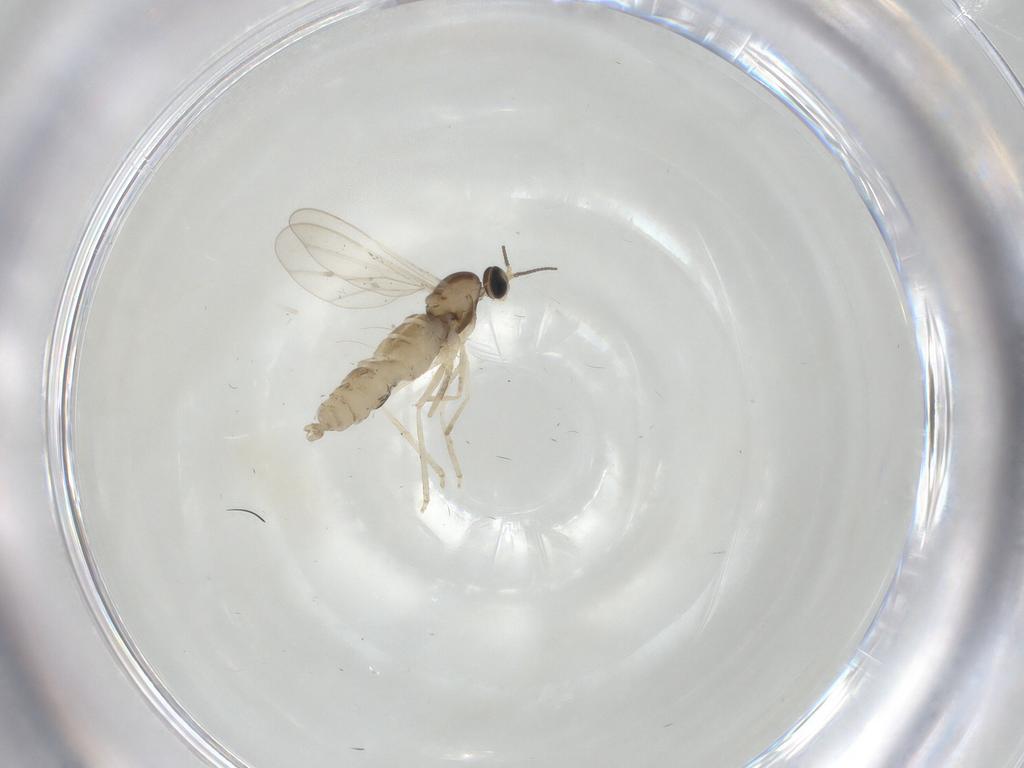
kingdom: Animalia
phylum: Arthropoda
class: Insecta
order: Diptera
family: Cecidomyiidae
